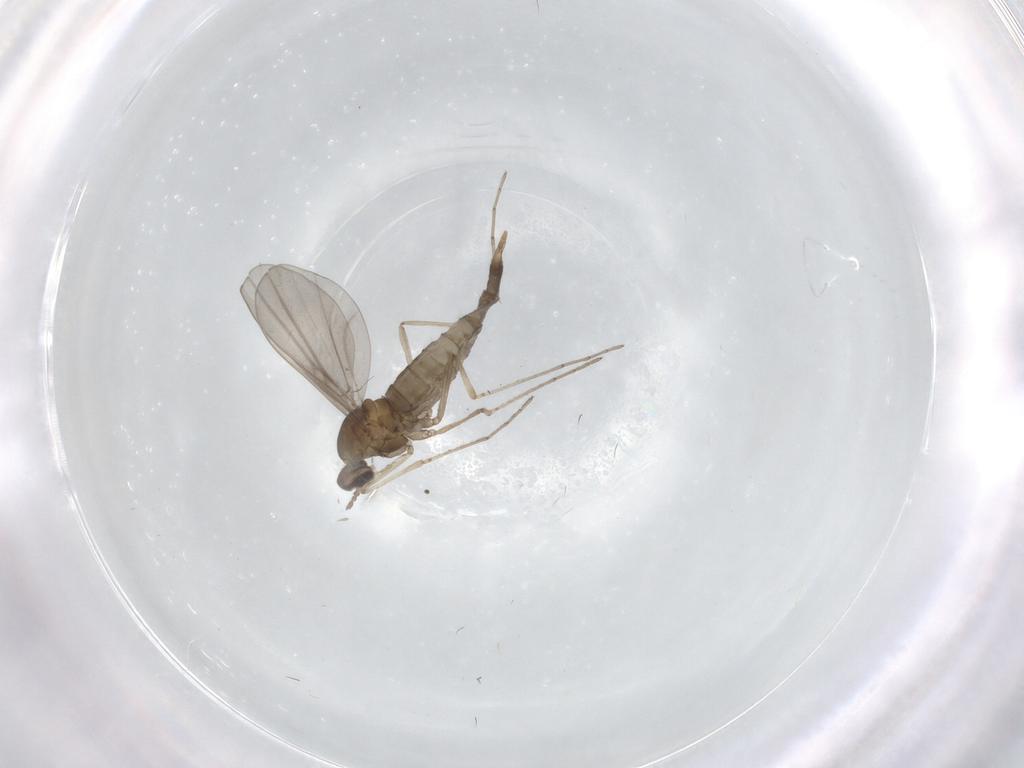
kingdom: Animalia
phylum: Arthropoda
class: Insecta
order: Diptera
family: Cecidomyiidae
